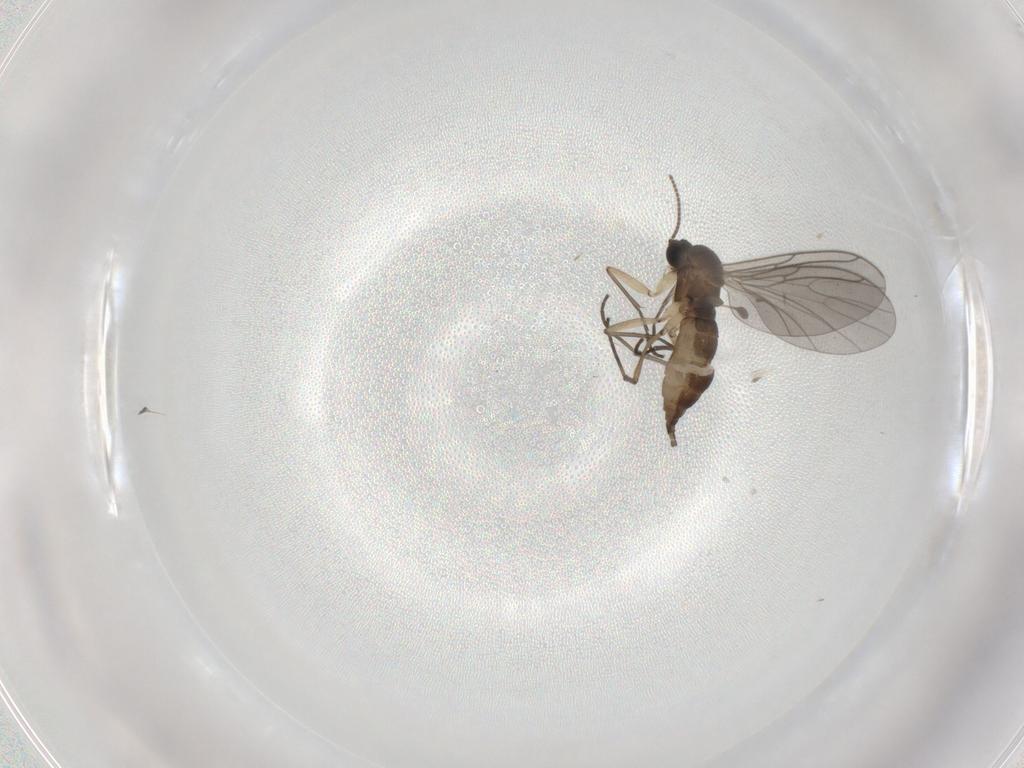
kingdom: Animalia
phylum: Arthropoda
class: Insecta
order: Diptera
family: Sciaridae
